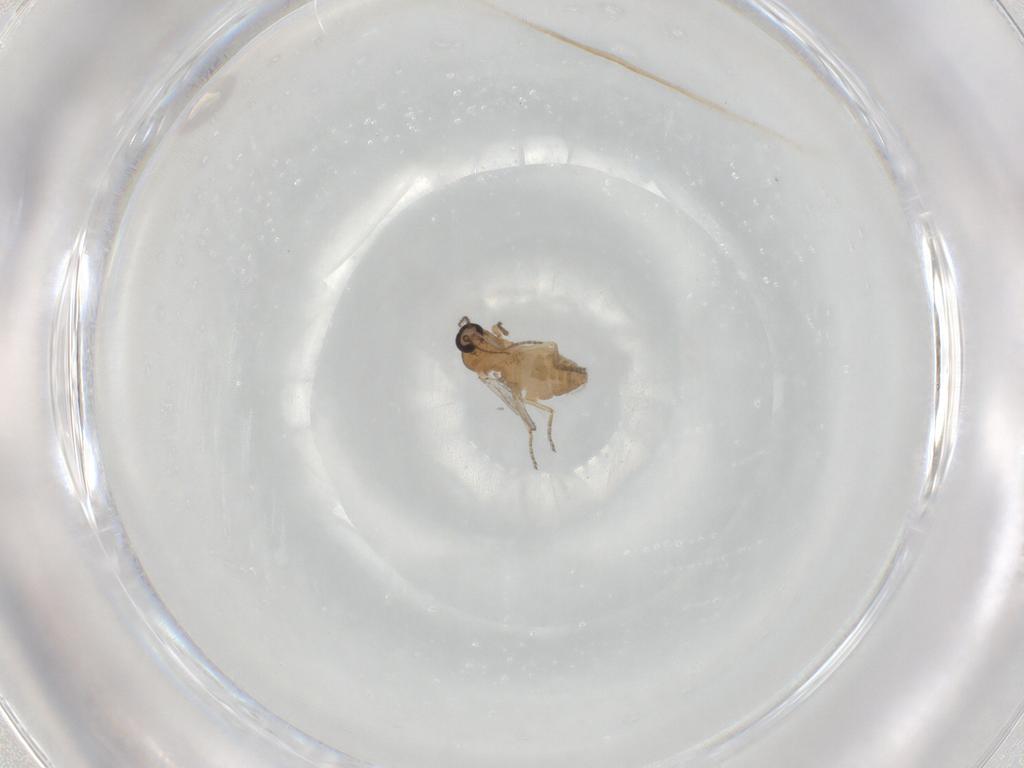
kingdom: Animalia
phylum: Arthropoda
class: Insecta
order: Diptera
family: Ceratopogonidae
